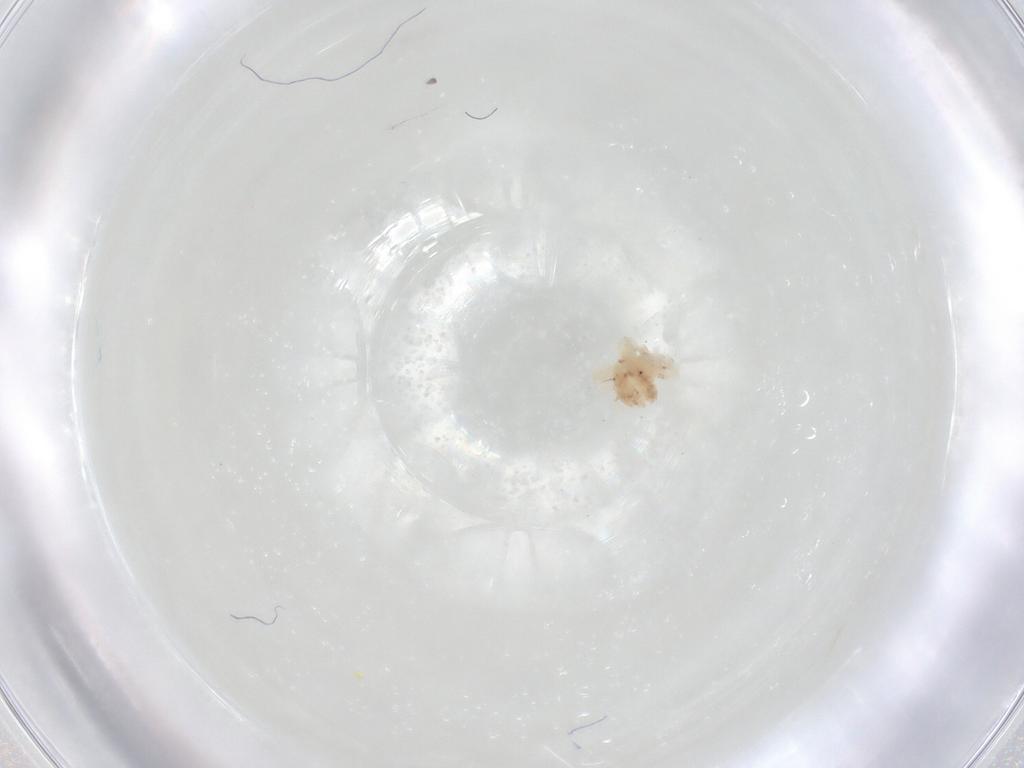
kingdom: Animalia
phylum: Arthropoda
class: Arachnida
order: Trombidiformes
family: Anystidae
